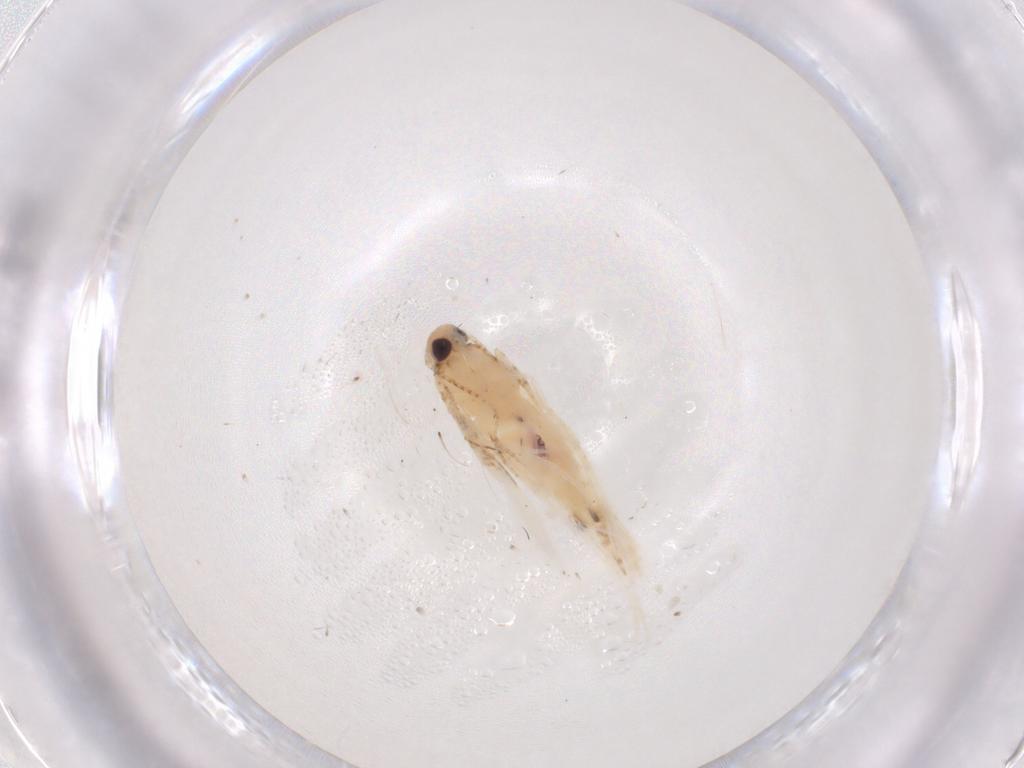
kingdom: Animalia
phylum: Arthropoda
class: Insecta
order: Lepidoptera
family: Gelechiidae
